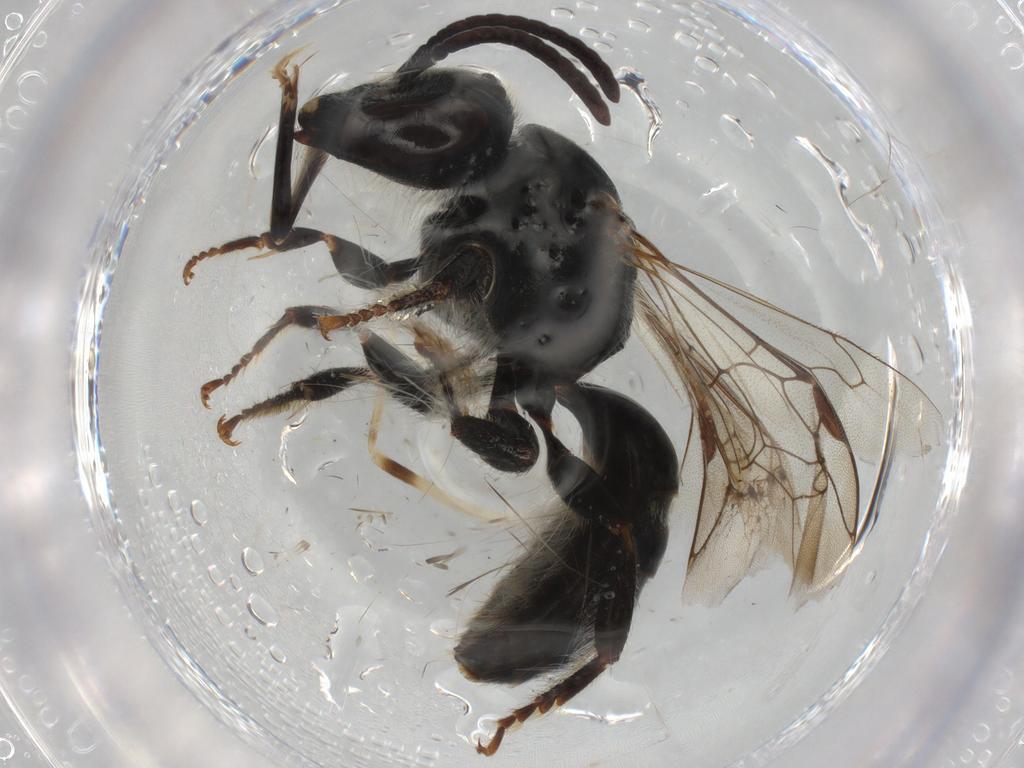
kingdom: Animalia
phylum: Arthropoda
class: Insecta
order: Hymenoptera
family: Halictidae
